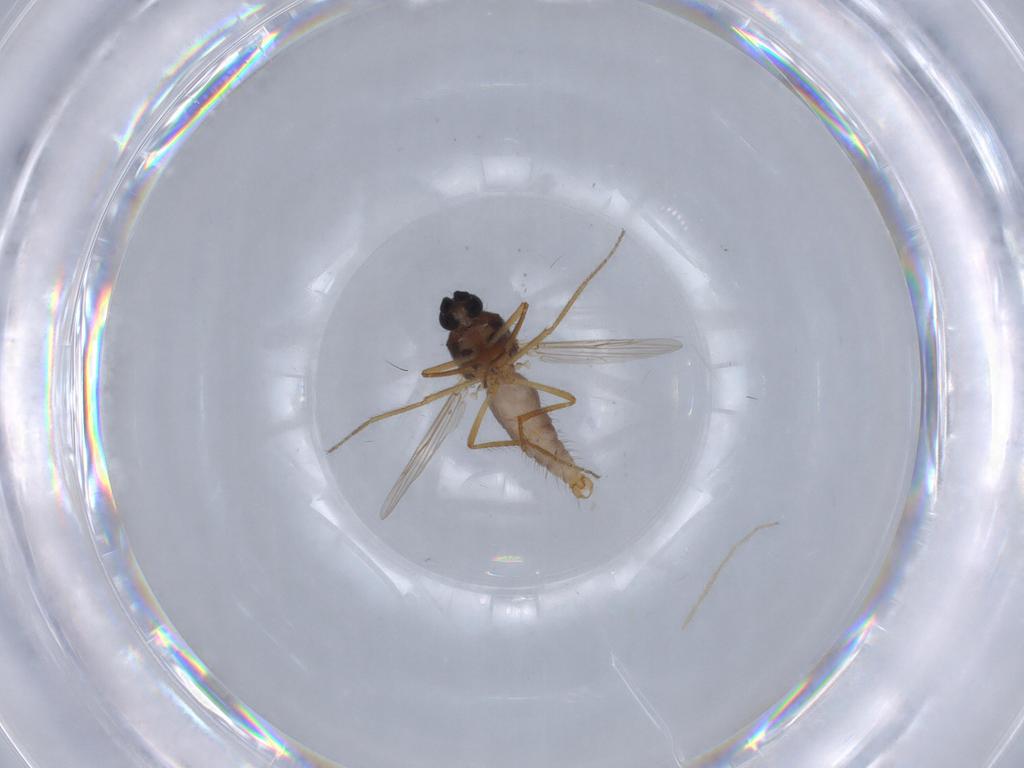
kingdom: Animalia
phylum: Arthropoda
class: Insecta
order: Diptera
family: Ceratopogonidae
